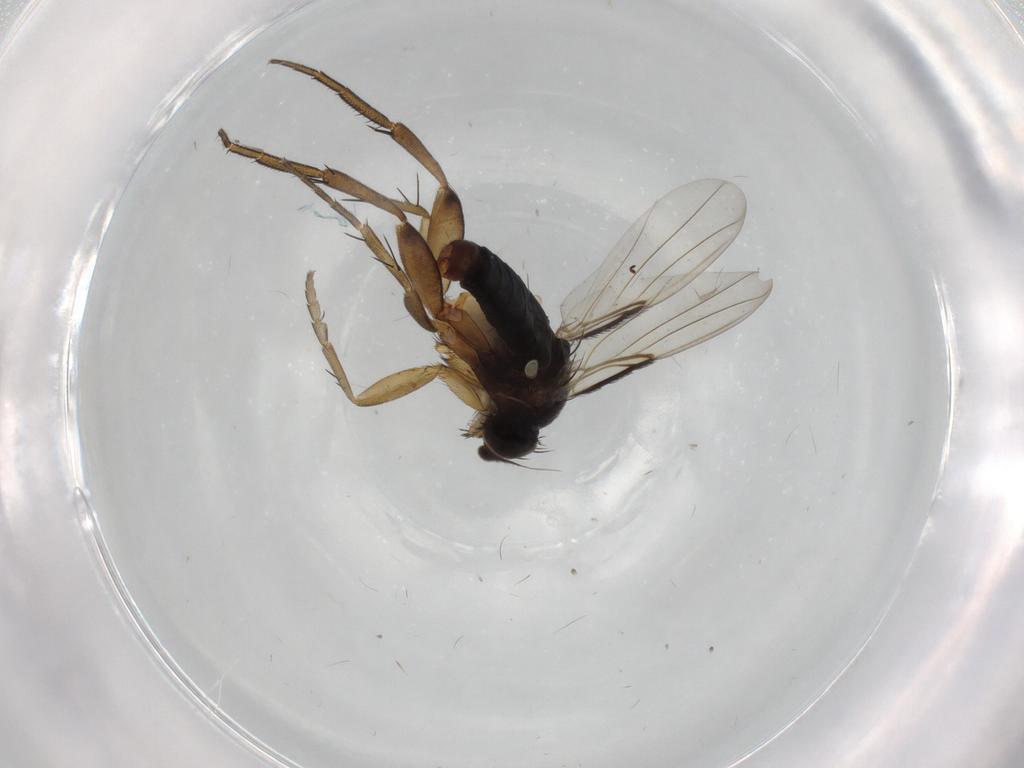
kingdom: Animalia
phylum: Arthropoda
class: Insecta
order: Diptera
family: Phoridae
